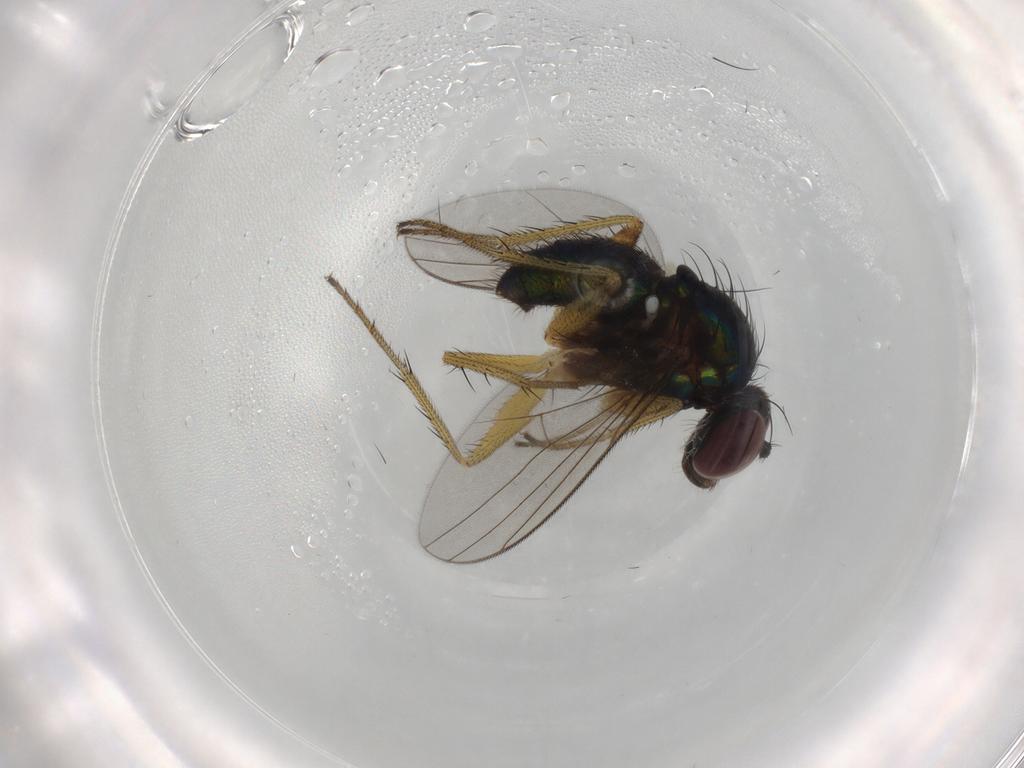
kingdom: Animalia
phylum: Arthropoda
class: Insecta
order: Diptera
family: Dolichopodidae
